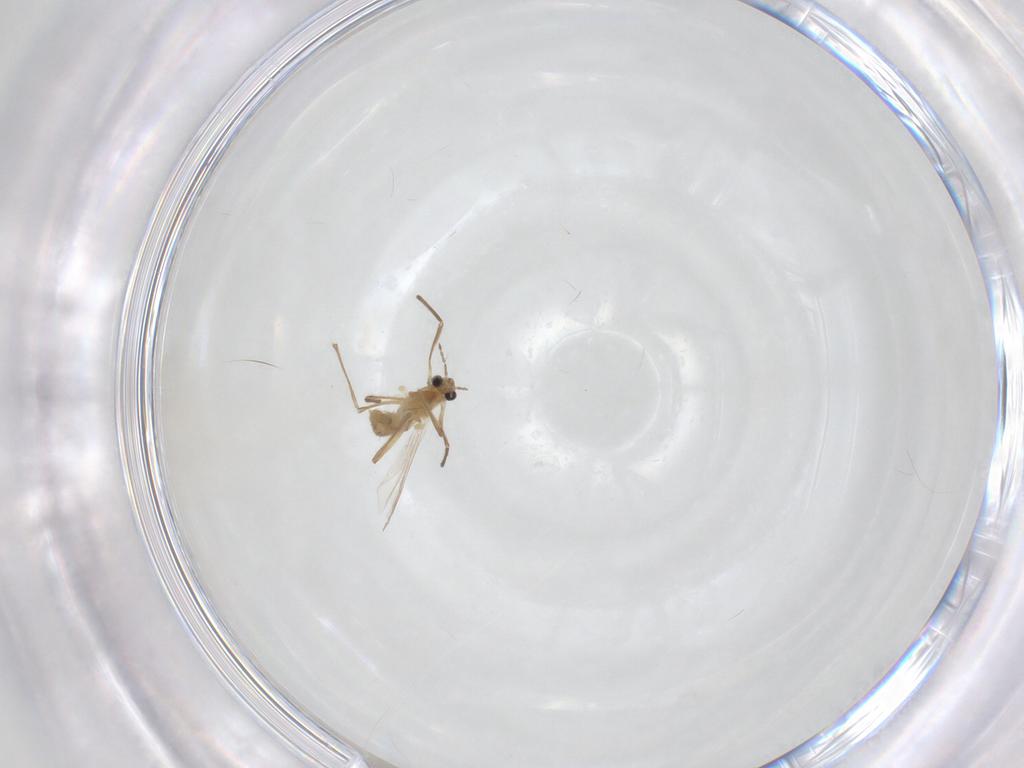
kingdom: Animalia
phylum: Arthropoda
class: Insecta
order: Diptera
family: Chironomidae
